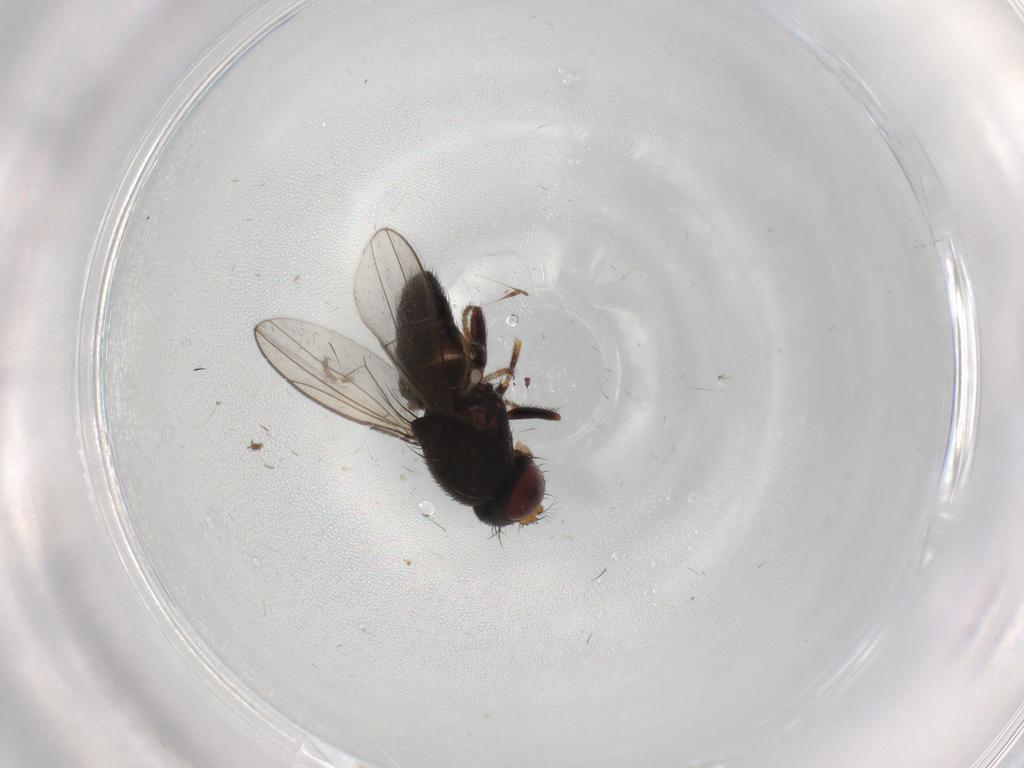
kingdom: Animalia
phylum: Arthropoda
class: Insecta
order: Diptera
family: Ephydridae
